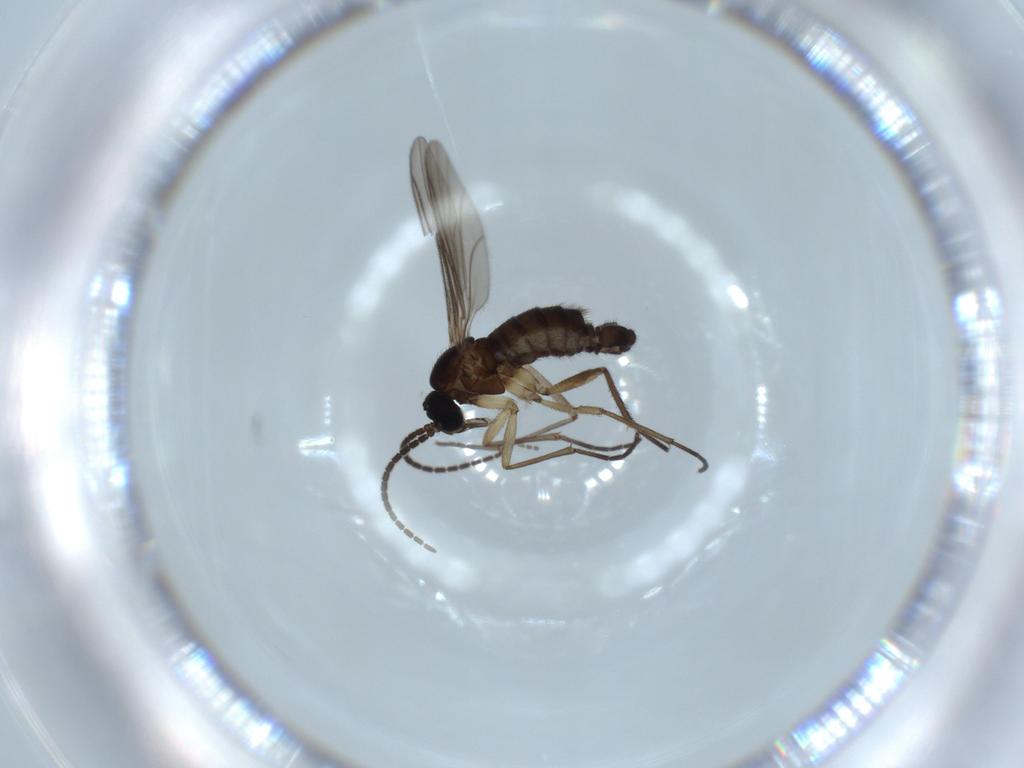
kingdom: Animalia
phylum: Arthropoda
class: Insecta
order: Diptera
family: Sciaridae
